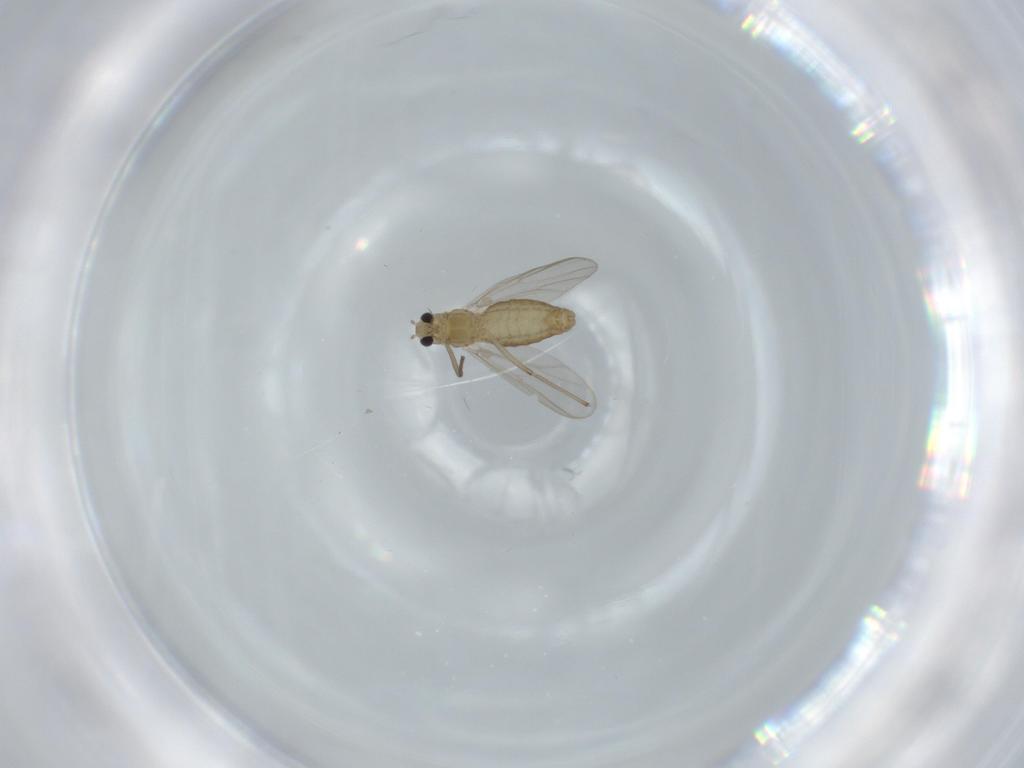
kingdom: Animalia
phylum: Arthropoda
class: Insecta
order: Diptera
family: Chironomidae
